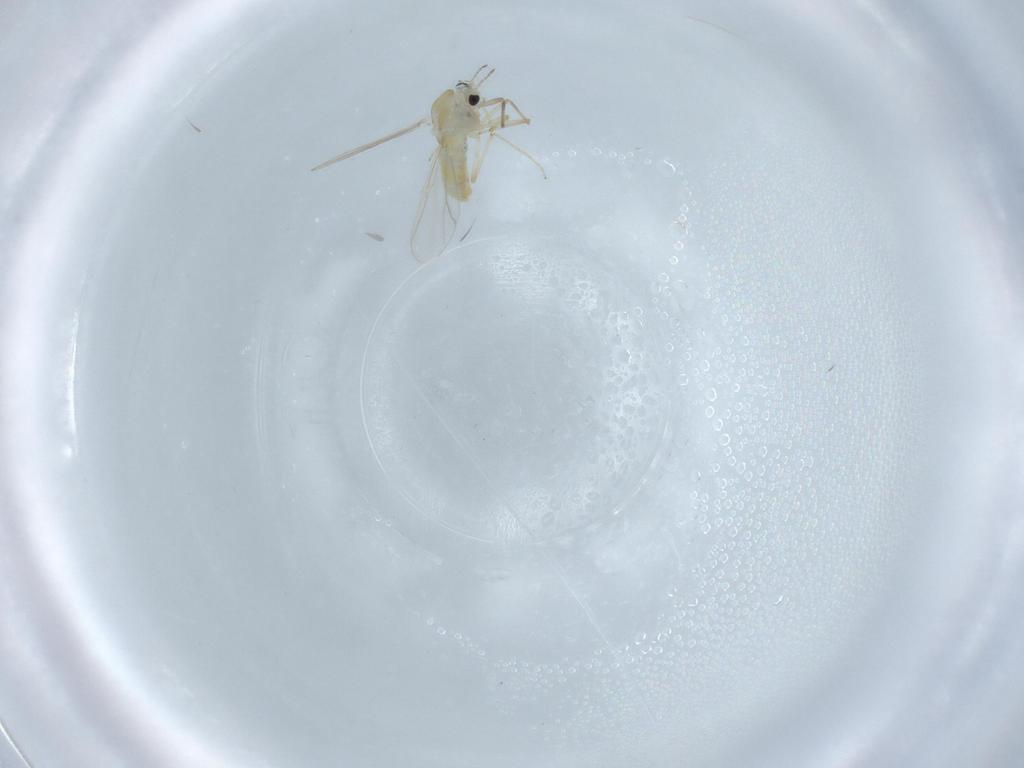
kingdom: Animalia
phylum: Arthropoda
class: Insecta
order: Diptera
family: Chironomidae
